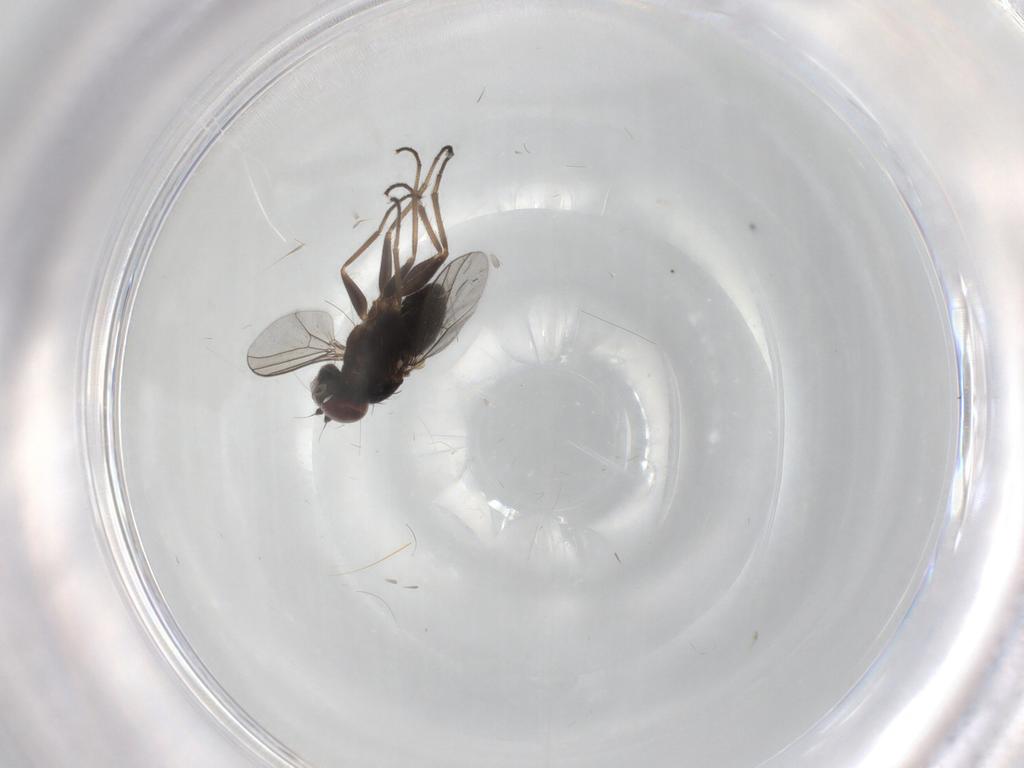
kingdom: Animalia
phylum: Arthropoda
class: Insecta
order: Diptera
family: Dolichopodidae
